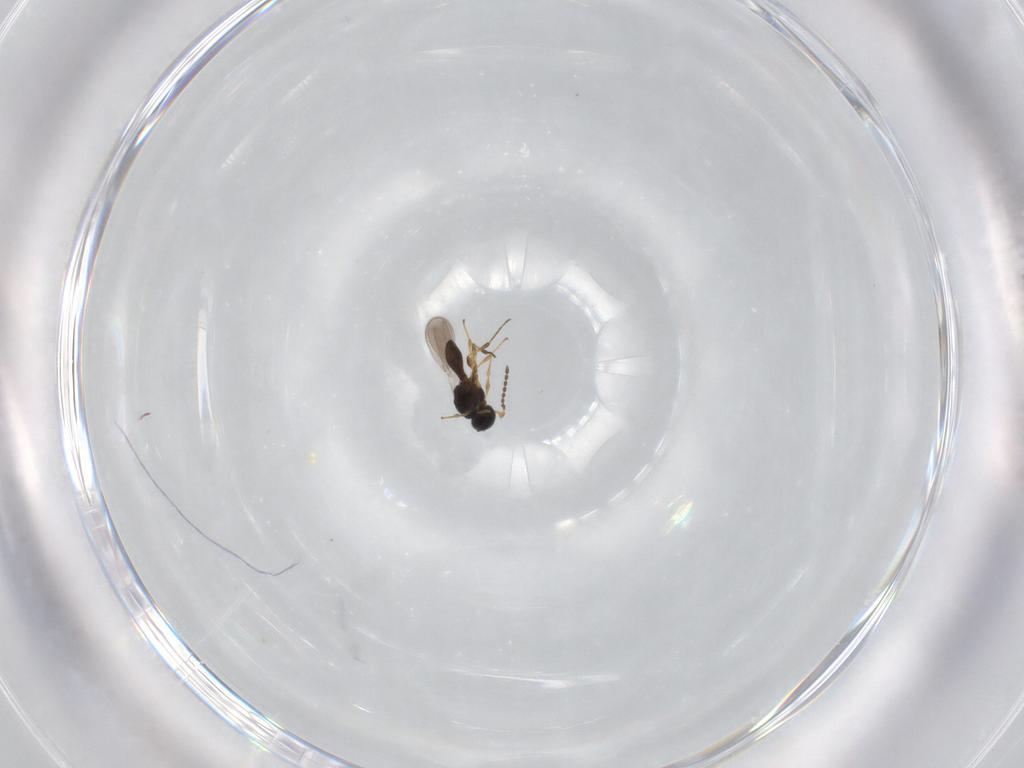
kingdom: Animalia
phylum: Arthropoda
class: Insecta
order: Hymenoptera
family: Platygastridae
